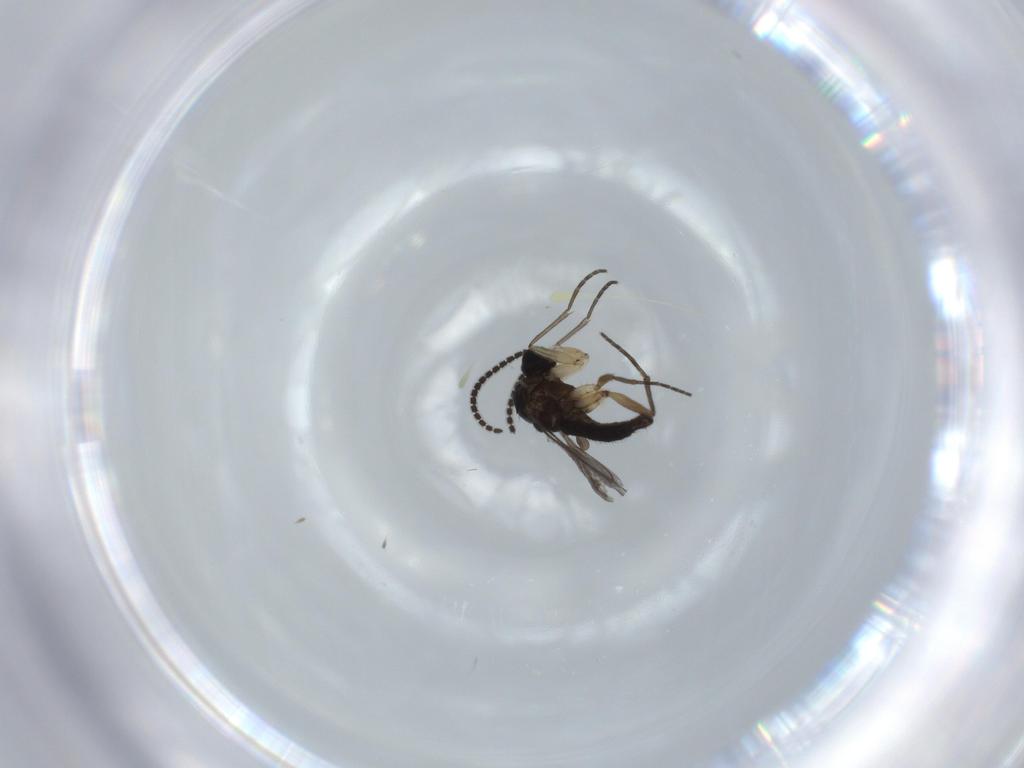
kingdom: Animalia
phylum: Arthropoda
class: Insecta
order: Diptera
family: Sciaridae
